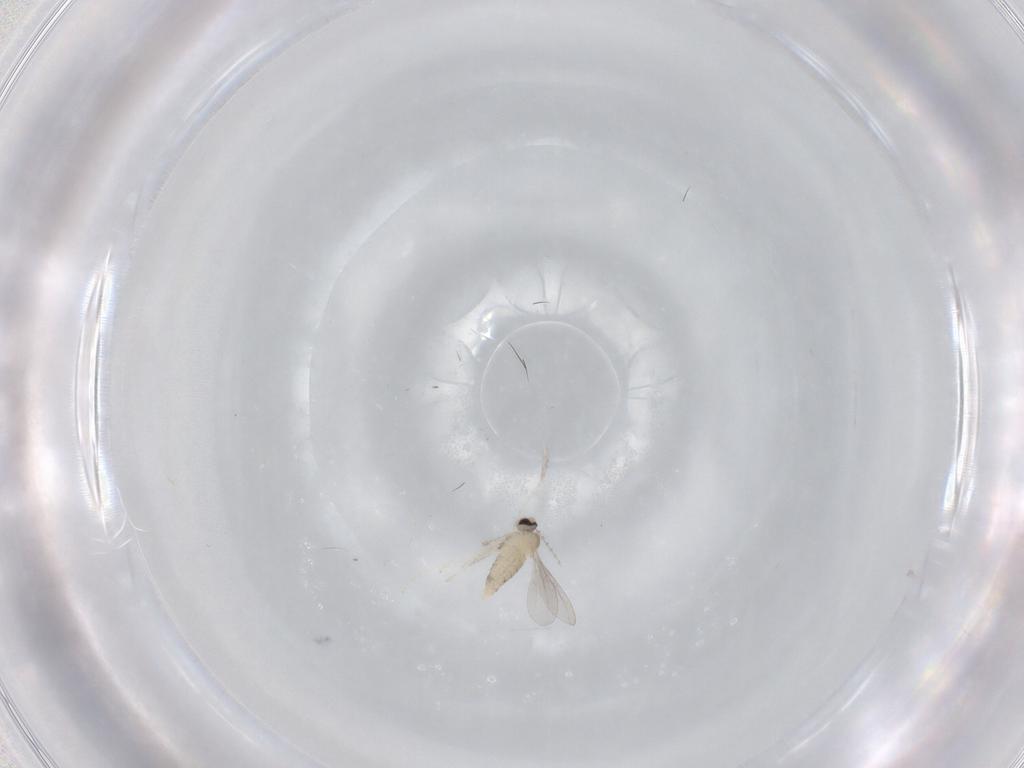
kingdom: Animalia
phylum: Arthropoda
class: Insecta
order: Diptera
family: Cecidomyiidae
